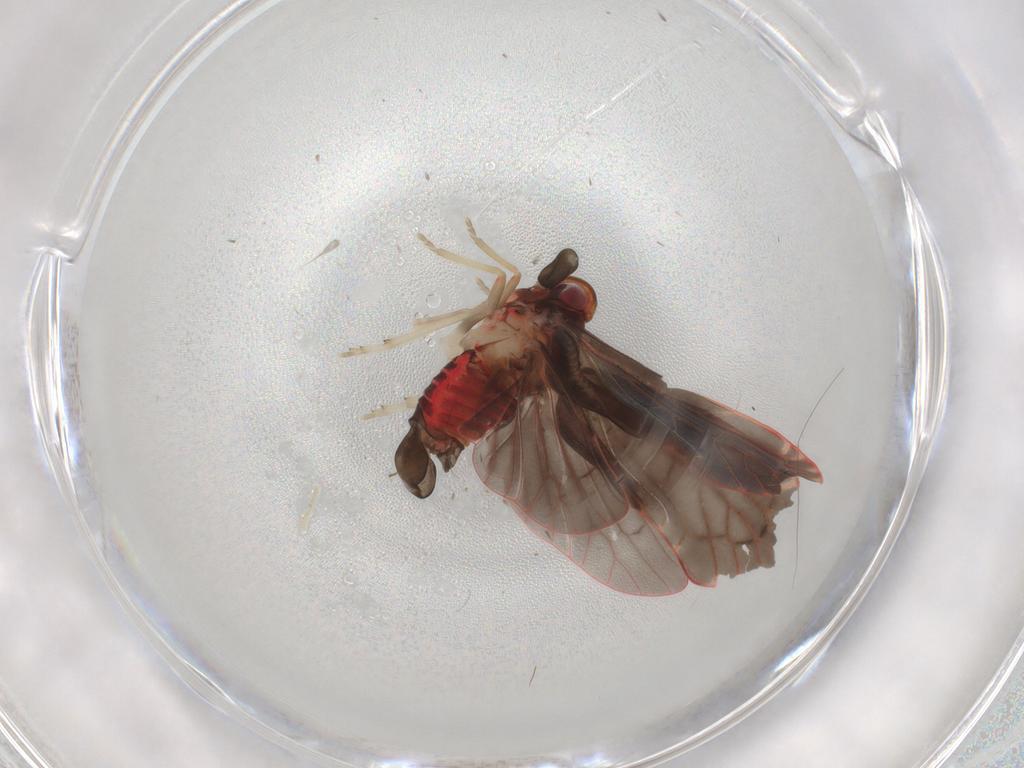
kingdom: Animalia
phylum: Arthropoda
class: Insecta
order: Hemiptera
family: Derbidae
